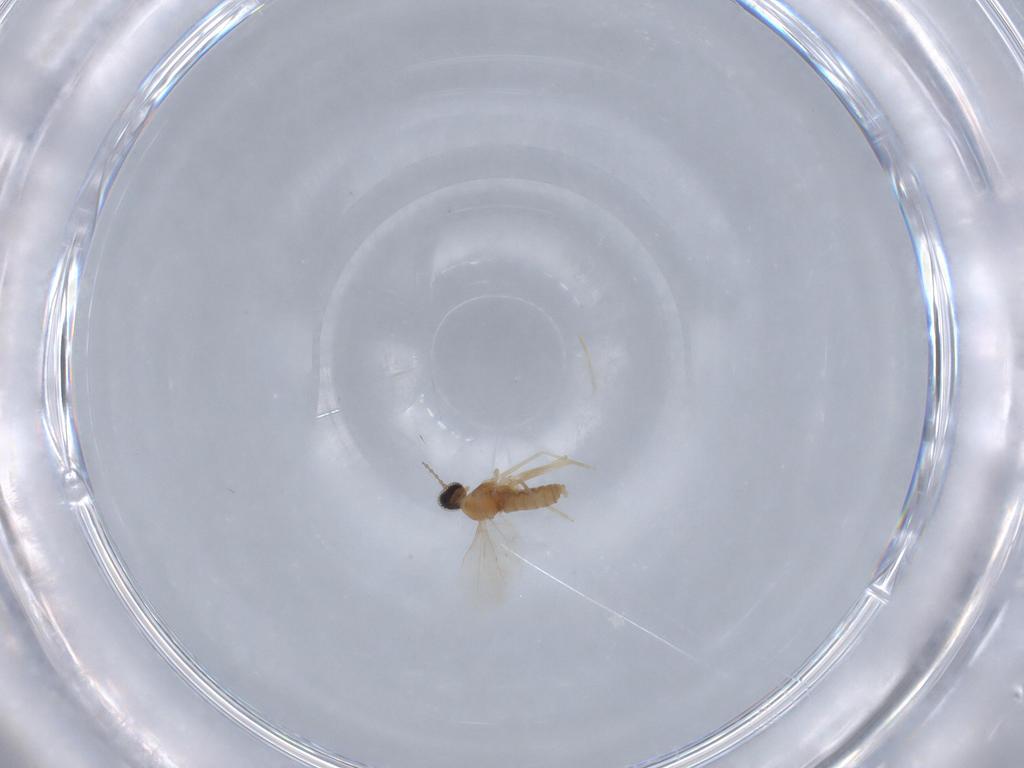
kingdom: Animalia
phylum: Arthropoda
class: Insecta
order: Diptera
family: Cecidomyiidae
